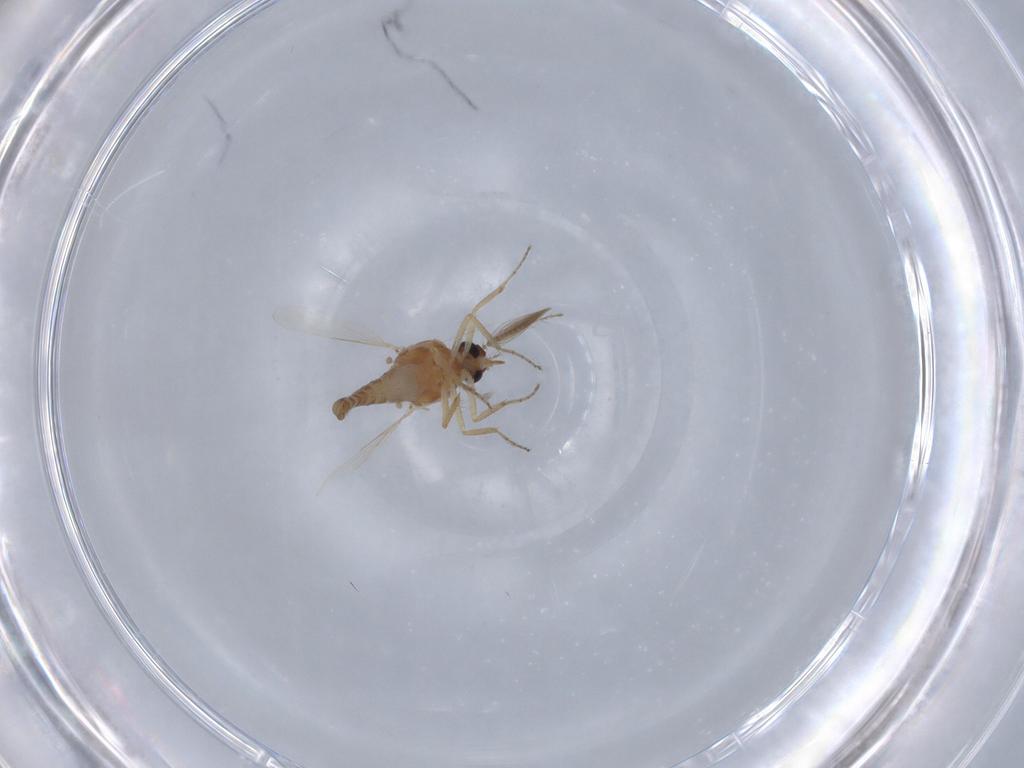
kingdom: Animalia
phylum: Arthropoda
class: Insecta
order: Diptera
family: Ceratopogonidae
